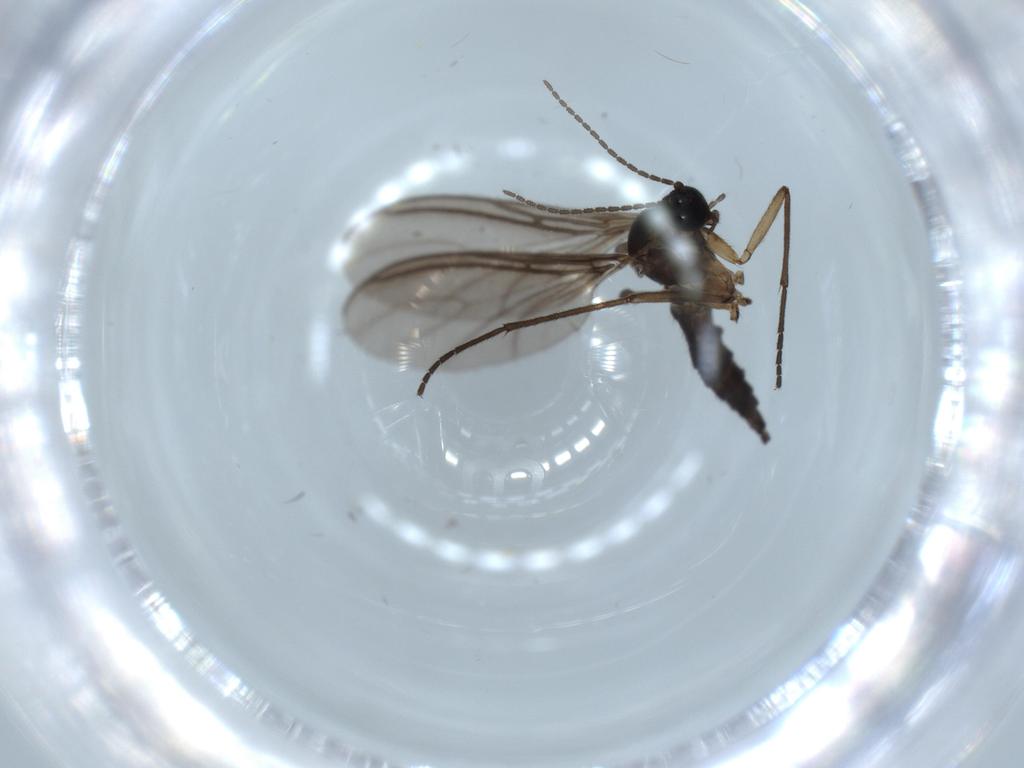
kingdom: Animalia
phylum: Arthropoda
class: Insecta
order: Diptera
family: Sciaridae
